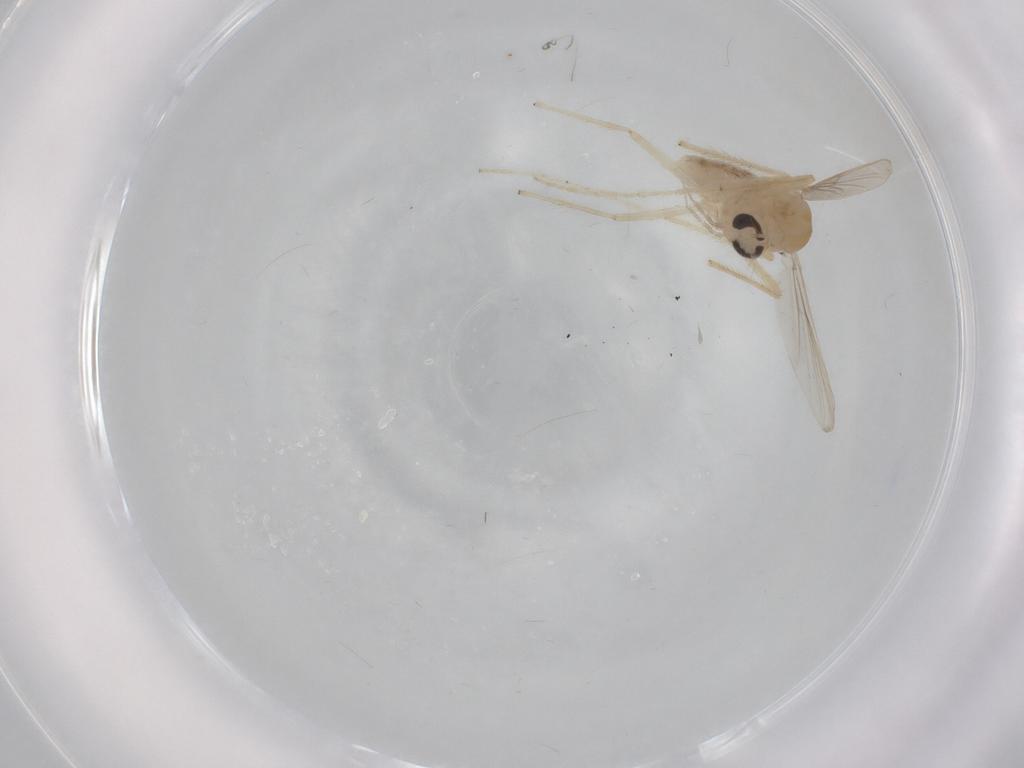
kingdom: Animalia
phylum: Arthropoda
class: Insecta
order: Diptera
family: Chironomidae
